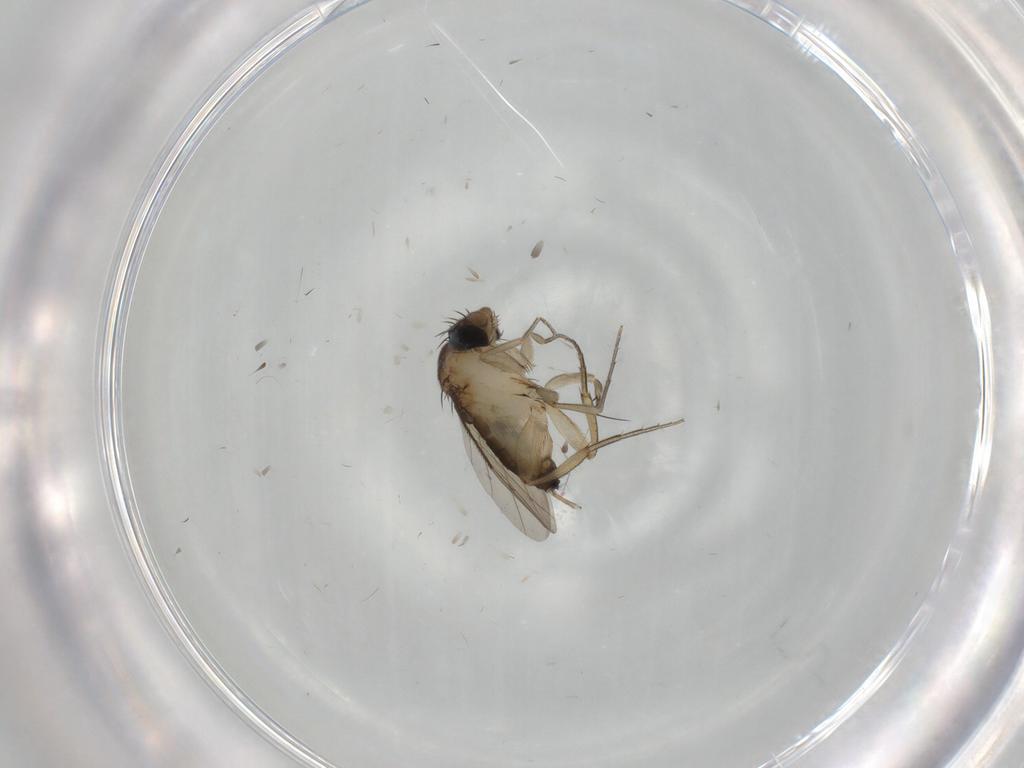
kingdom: Animalia
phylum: Arthropoda
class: Insecta
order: Diptera
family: Phoridae
